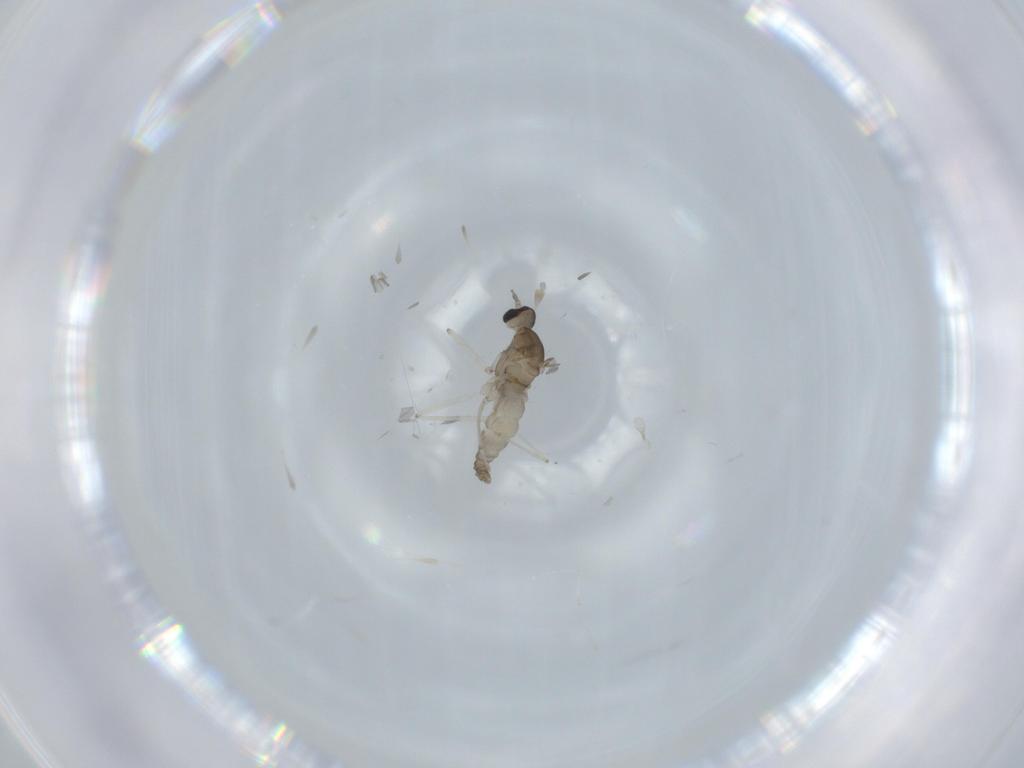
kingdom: Animalia
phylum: Arthropoda
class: Insecta
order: Diptera
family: Cecidomyiidae
